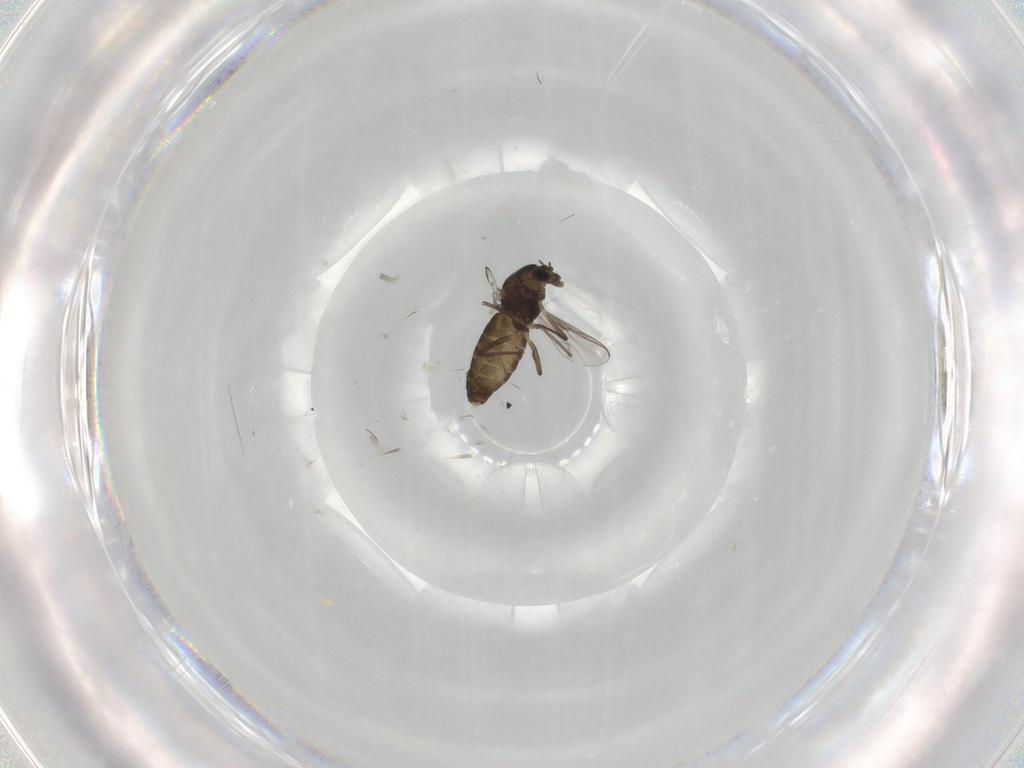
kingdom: Animalia
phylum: Arthropoda
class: Insecta
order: Diptera
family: Chironomidae
